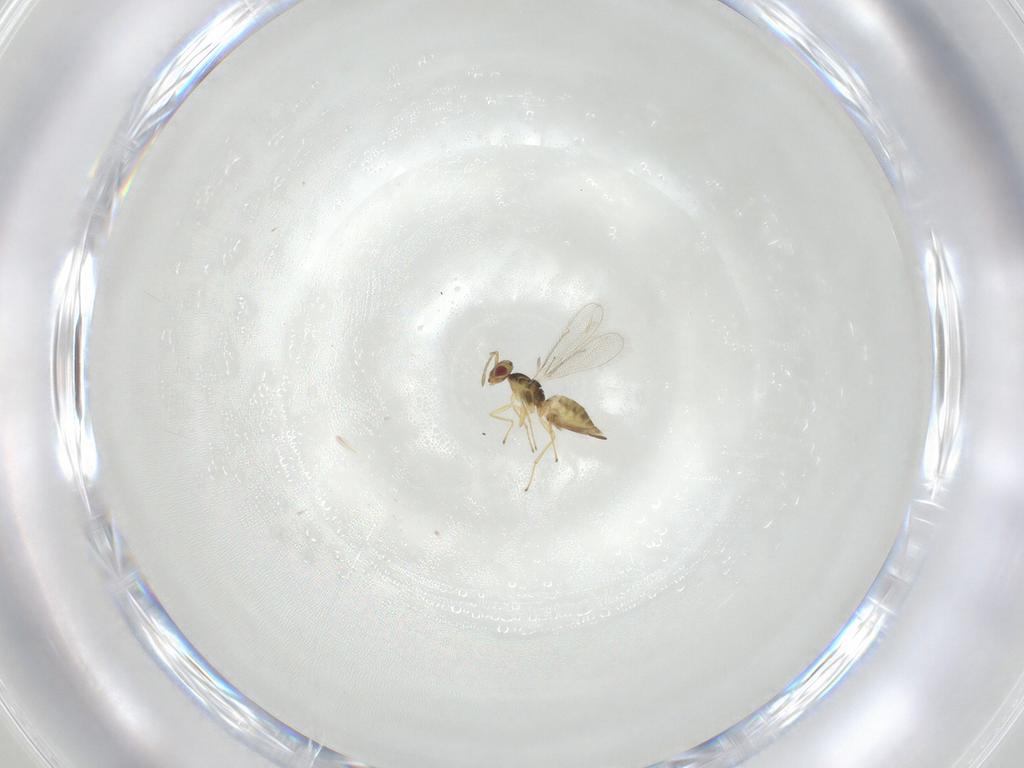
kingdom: Animalia
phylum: Arthropoda
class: Insecta
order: Hymenoptera
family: Eulophidae
